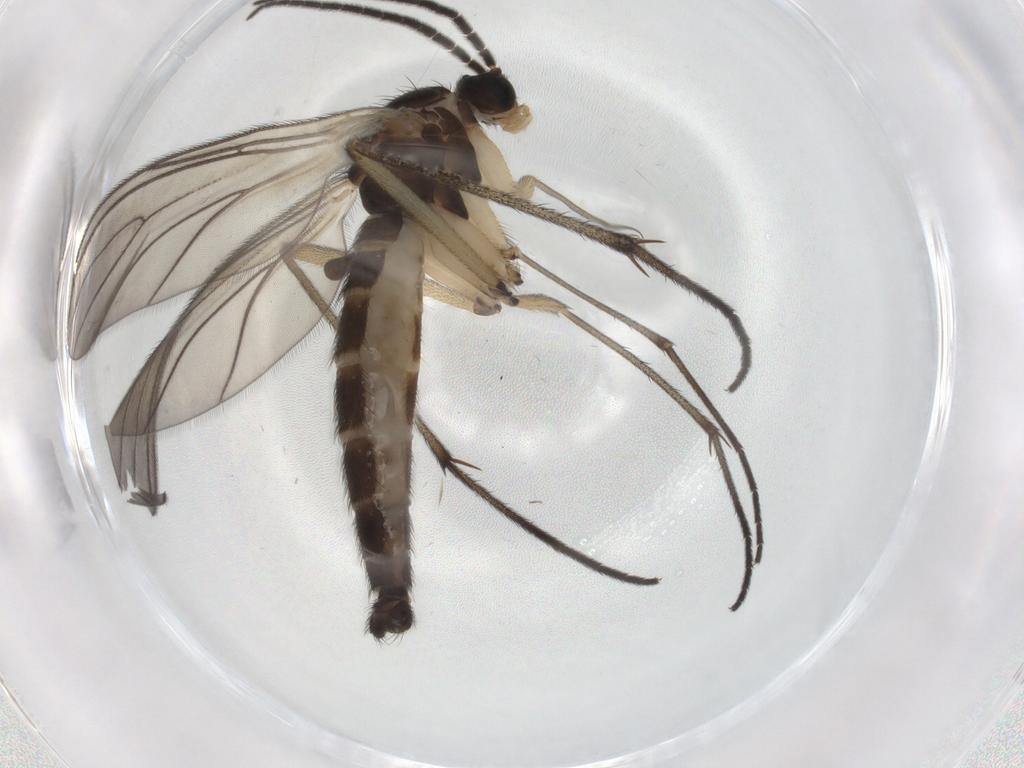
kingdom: Animalia
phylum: Arthropoda
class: Insecta
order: Diptera
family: Sciaridae
